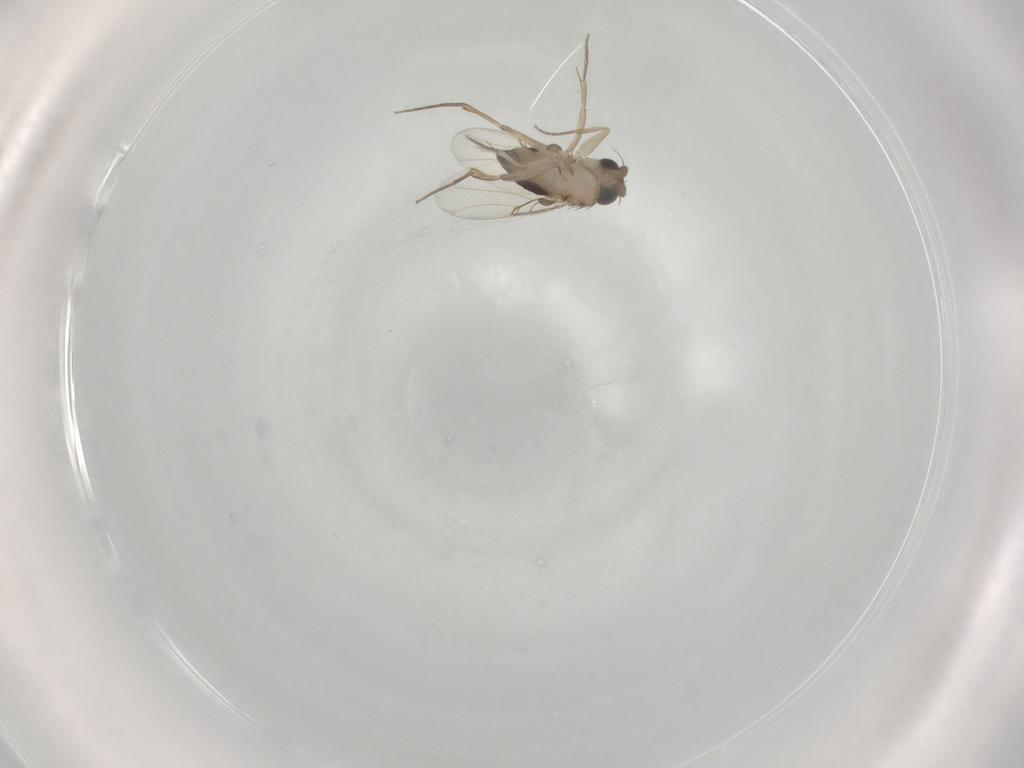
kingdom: Animalia
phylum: Arthropoda
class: Insecta
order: Diptera
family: Phoridae
